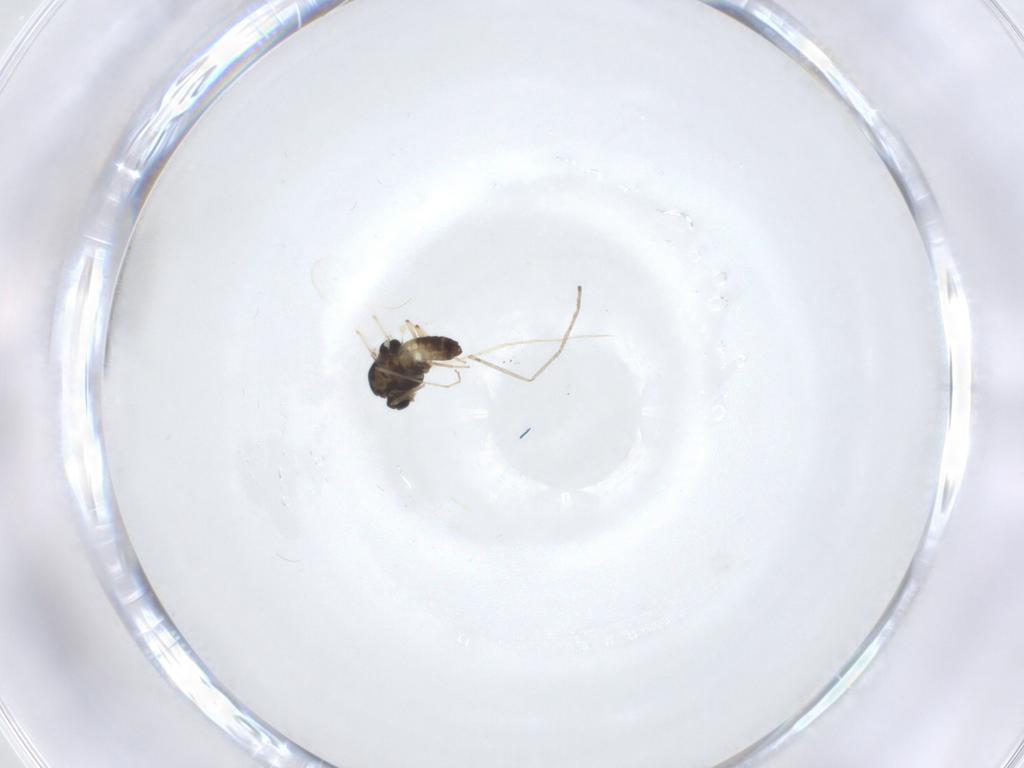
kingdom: Animalia
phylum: Arthropoda
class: Insecta
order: Diptera
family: Chironomidae
